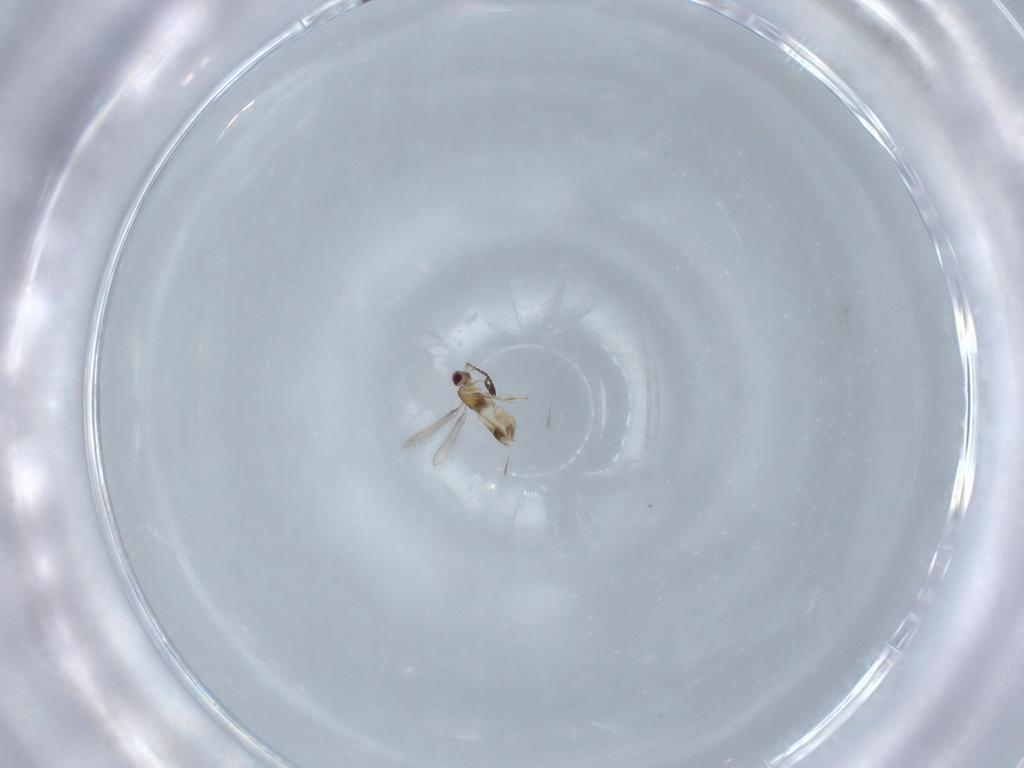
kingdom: Animalia
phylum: Arthropoda
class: Insecta
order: Hymenoptera
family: Mymaridae
